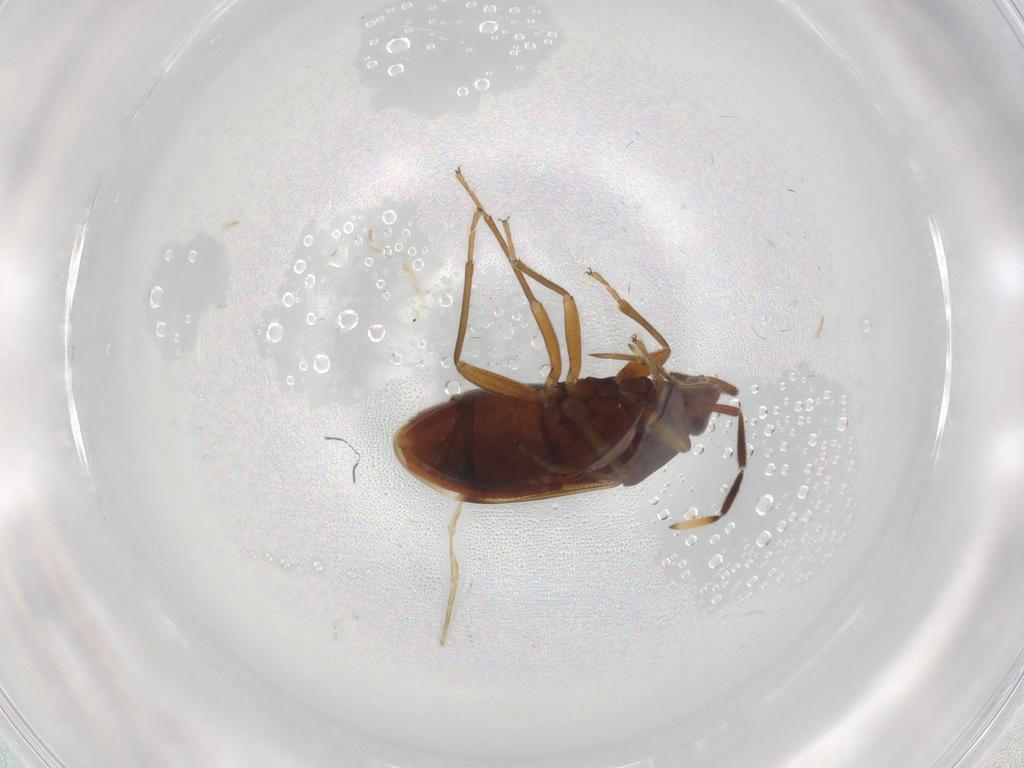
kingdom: Animalia
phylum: Arthropoda
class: Insecta
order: Hemiptera
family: Rhyparochromidae
